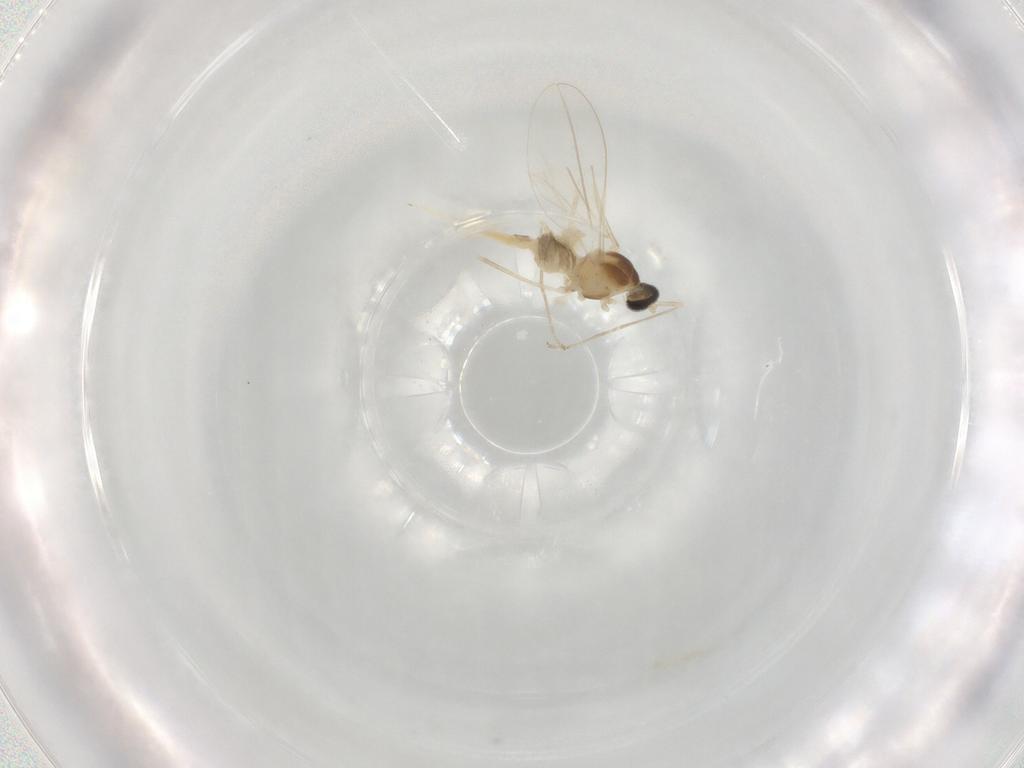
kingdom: Animalia
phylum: Arthropoda
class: Insecta
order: Diptera
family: Cecidomyiidae
